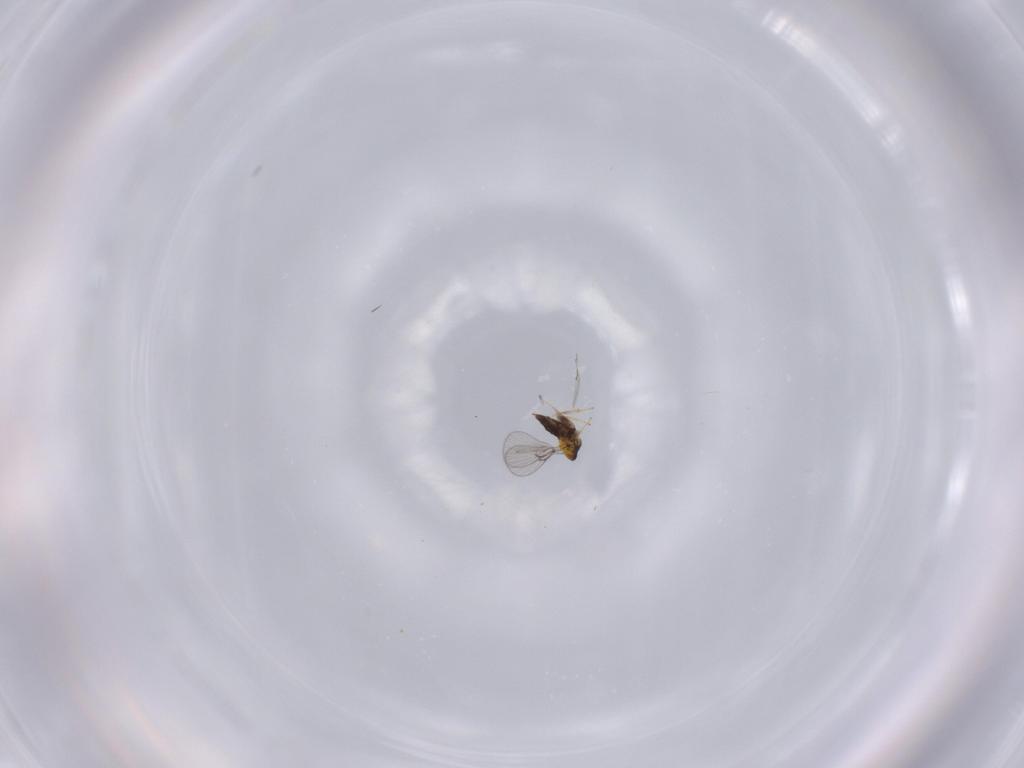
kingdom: Animalia
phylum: Arthropoda
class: Insecta
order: Hymenoptera
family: Trichogrammatidae
